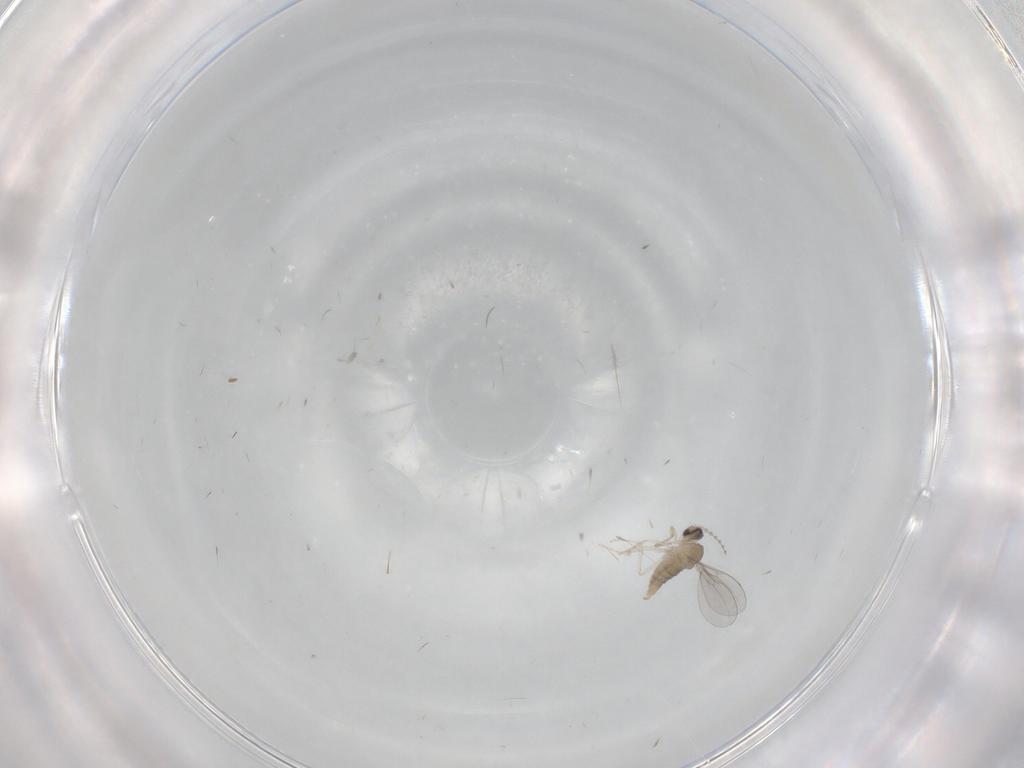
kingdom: Animalia
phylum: Arthropoda
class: Insecta
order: Diptera
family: Cecidomyiidae
